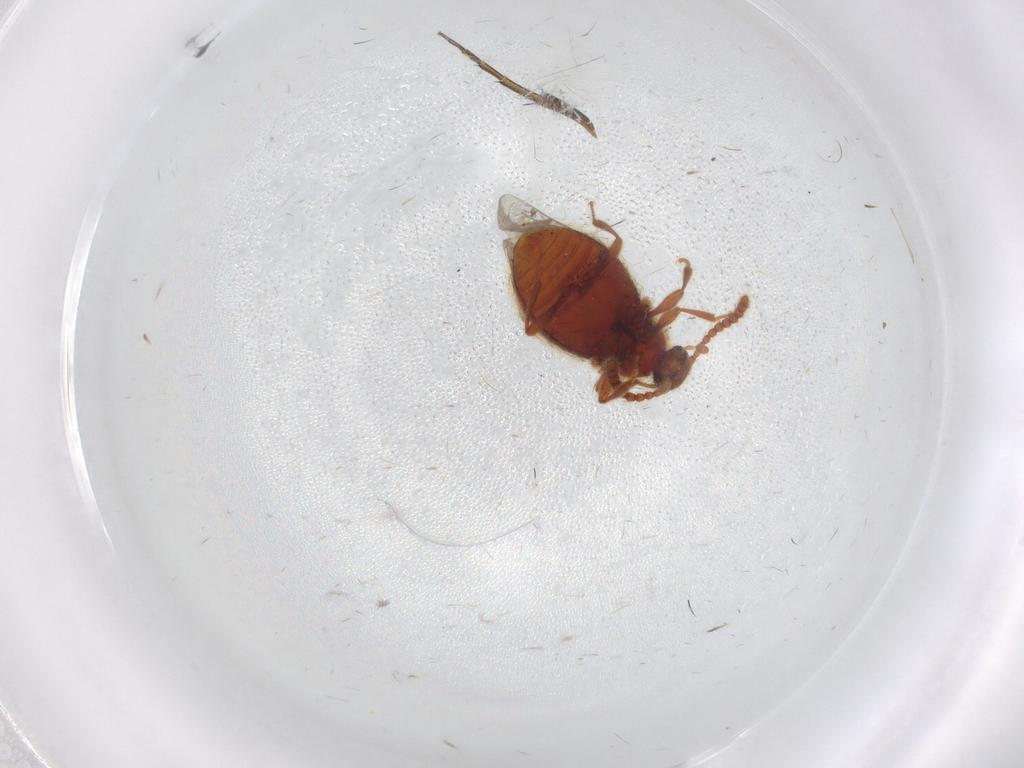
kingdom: Animalia
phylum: Arthropoda
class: Insecta
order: Coleoptera
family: Staphylinidae
